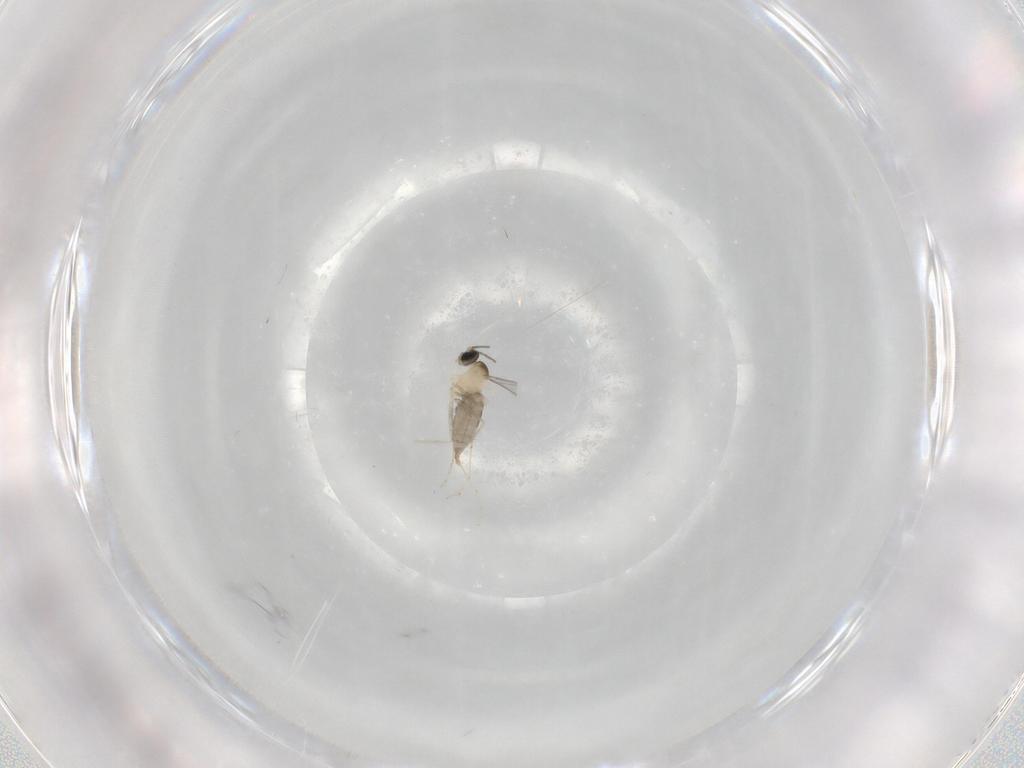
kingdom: Animalia
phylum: Arthropoda
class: Insecta
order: Diptera
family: Cecidomyiidae
